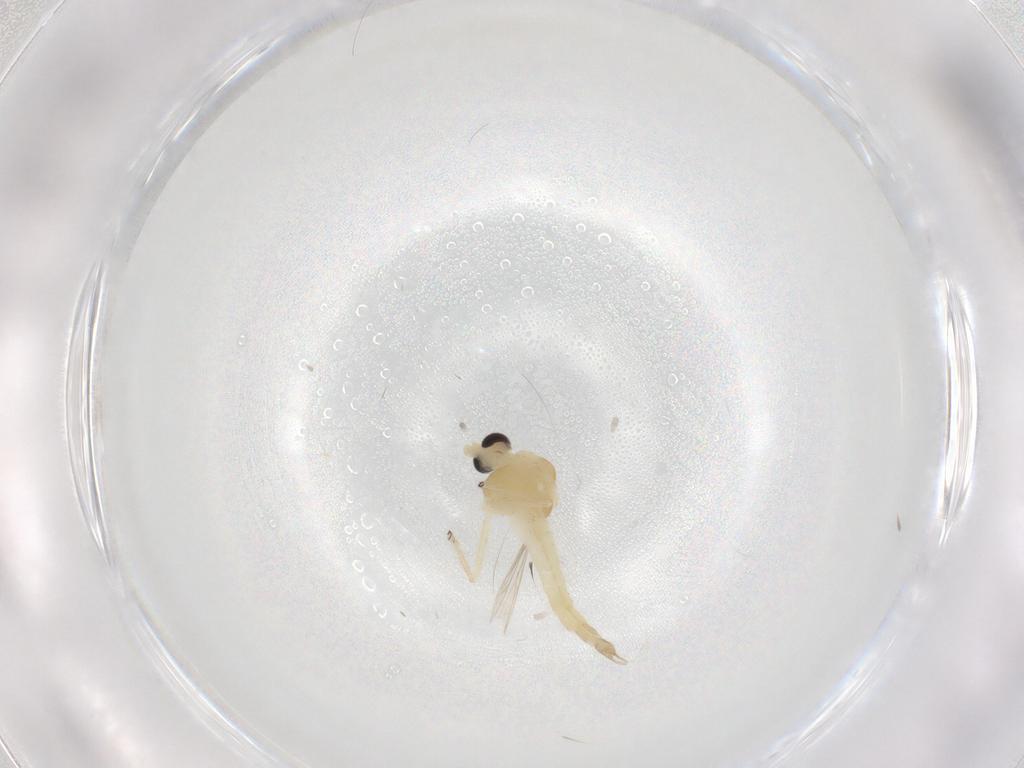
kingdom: Animalia
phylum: Arthropoda
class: Insecta
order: Diptera
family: Chironomidae
